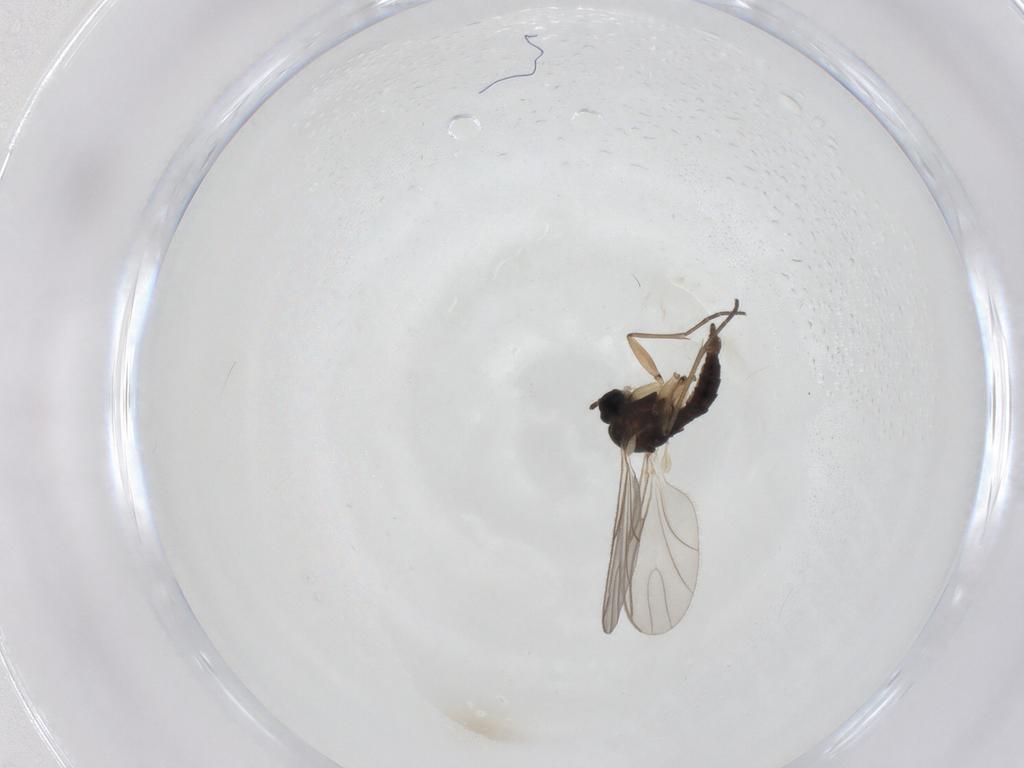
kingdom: Animalia
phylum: Arthropoda
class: Insecta
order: Diptera
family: Sciaridae
